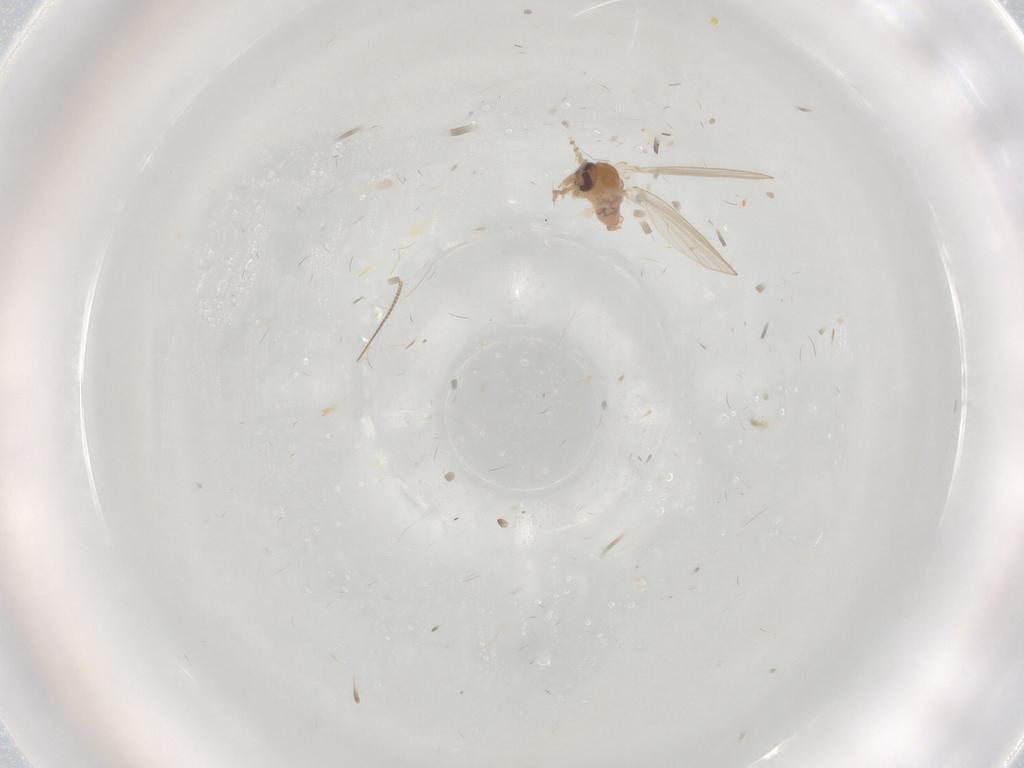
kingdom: Animalia
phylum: Arthropoda
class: Insecta
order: Diptera
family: Psychodidae
